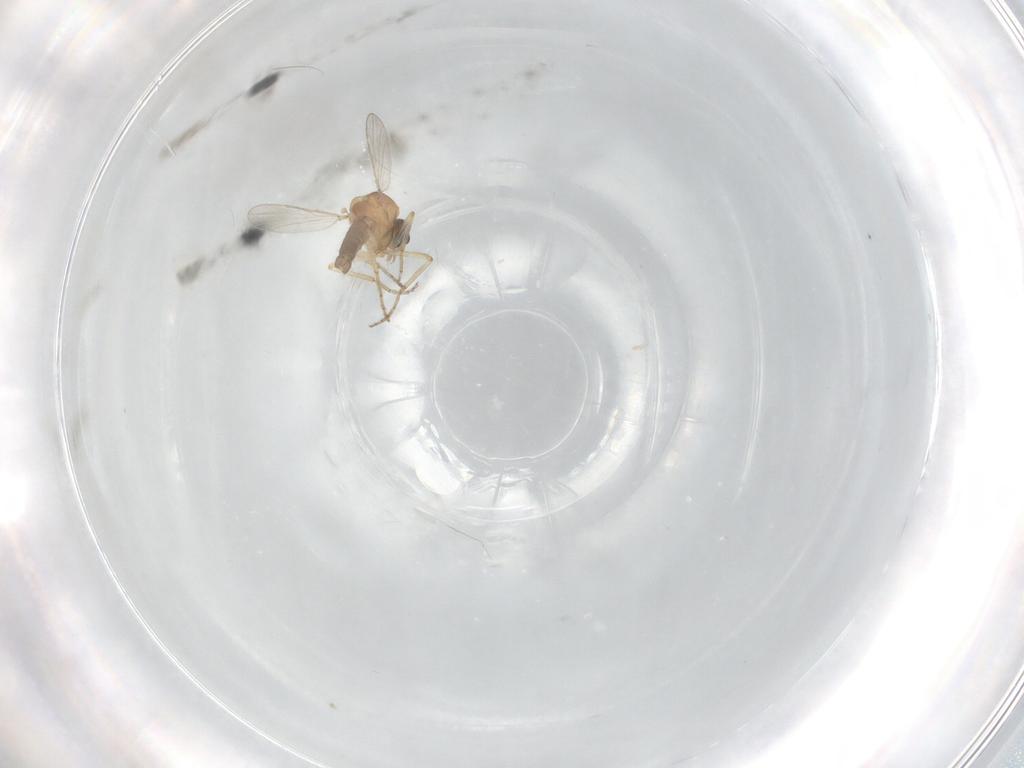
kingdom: Animalia
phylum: Arthropoda
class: Insecta
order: Diptera
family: Ceratopogonidae
